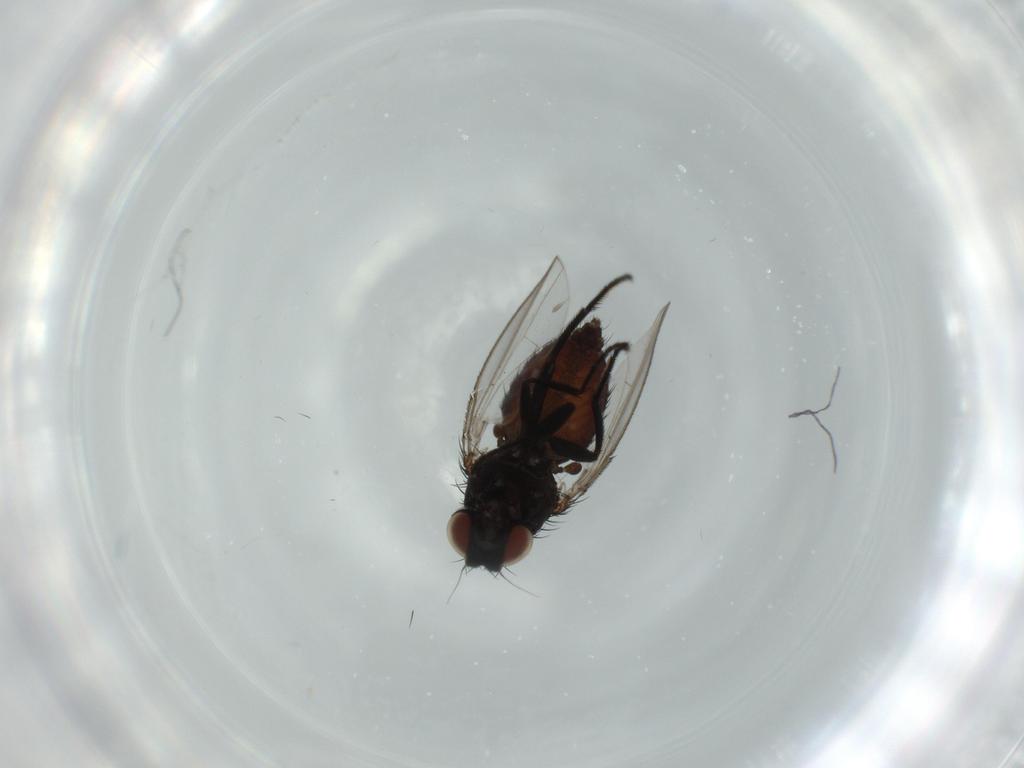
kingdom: Animalia
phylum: Arthropoda
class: Insecta
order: Diptera
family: Milichiidae
